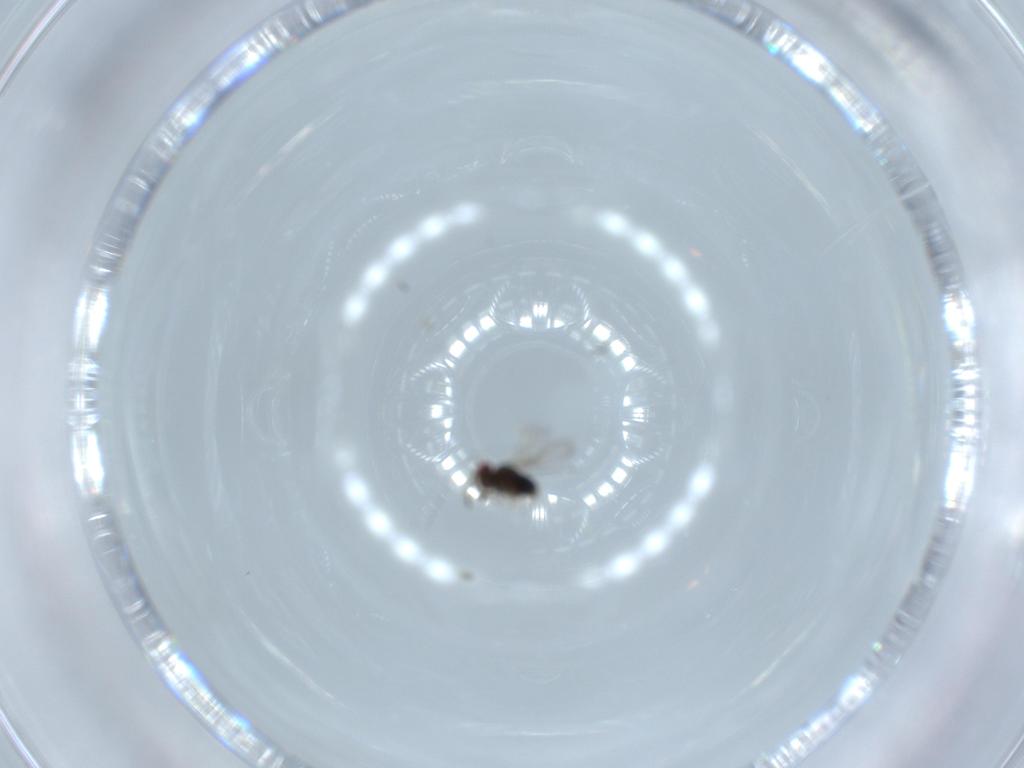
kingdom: Animalia
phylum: Arthropoda
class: Insecta
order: Hymenoptera
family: Azotidae
